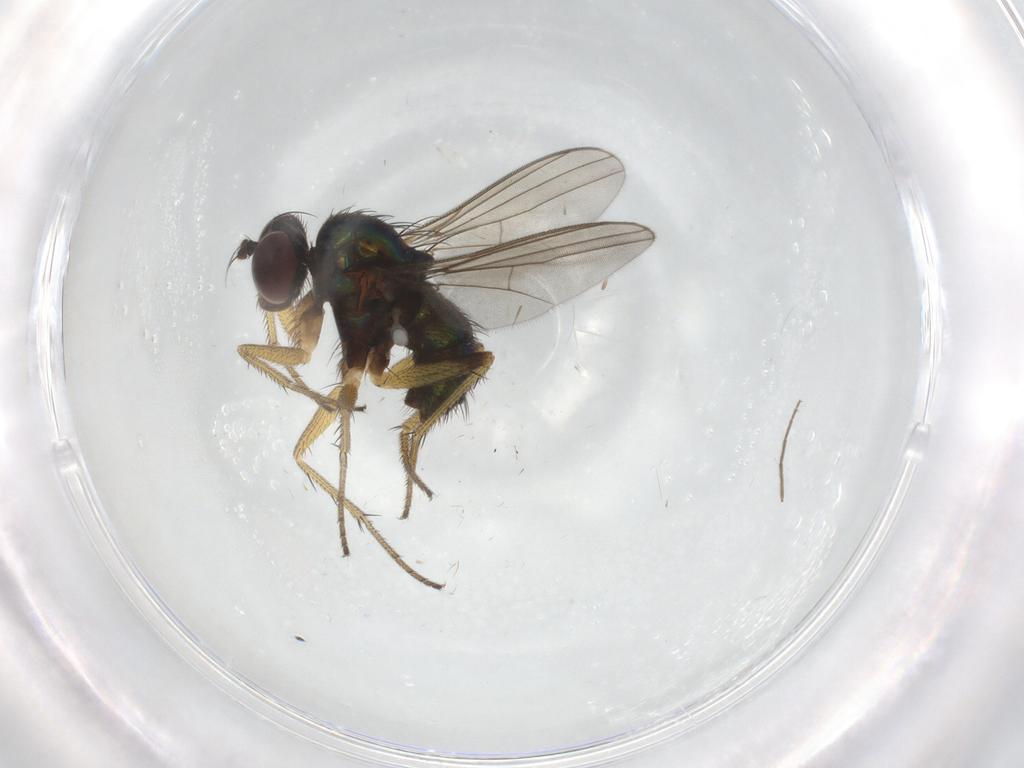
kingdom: Animalia
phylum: Arthropoda
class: Insecta
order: Diptera
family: Dolichopodidae
